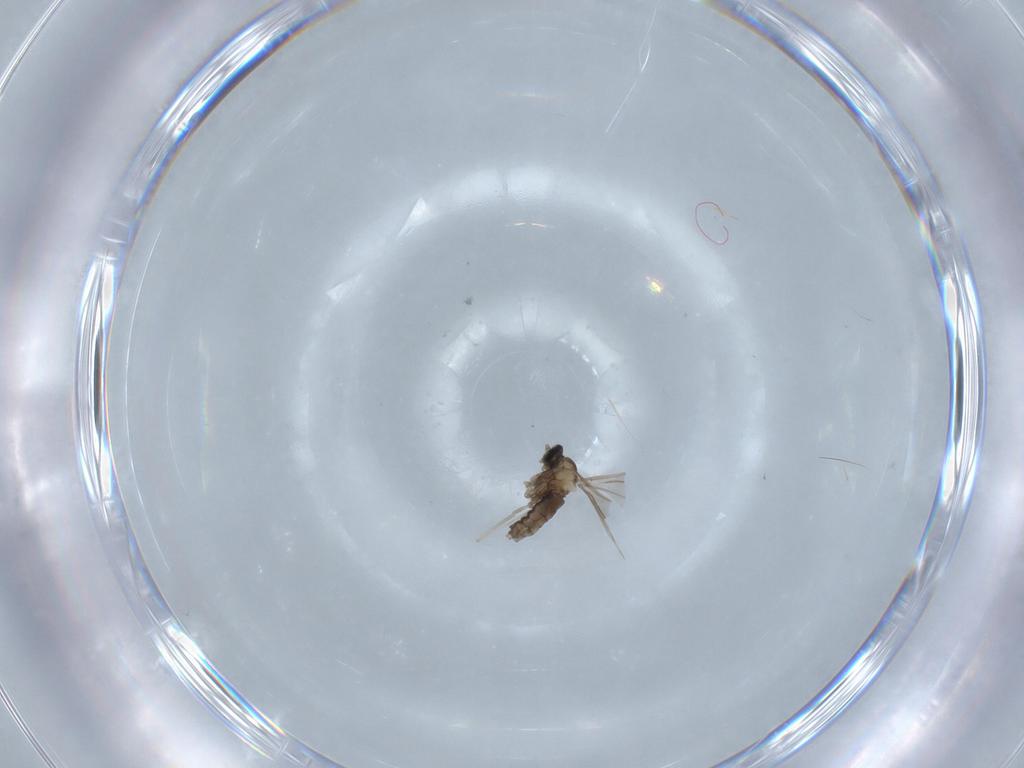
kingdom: Animalia
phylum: Arthropoda
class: Insecta
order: Diptera
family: Cecidomyiidae
